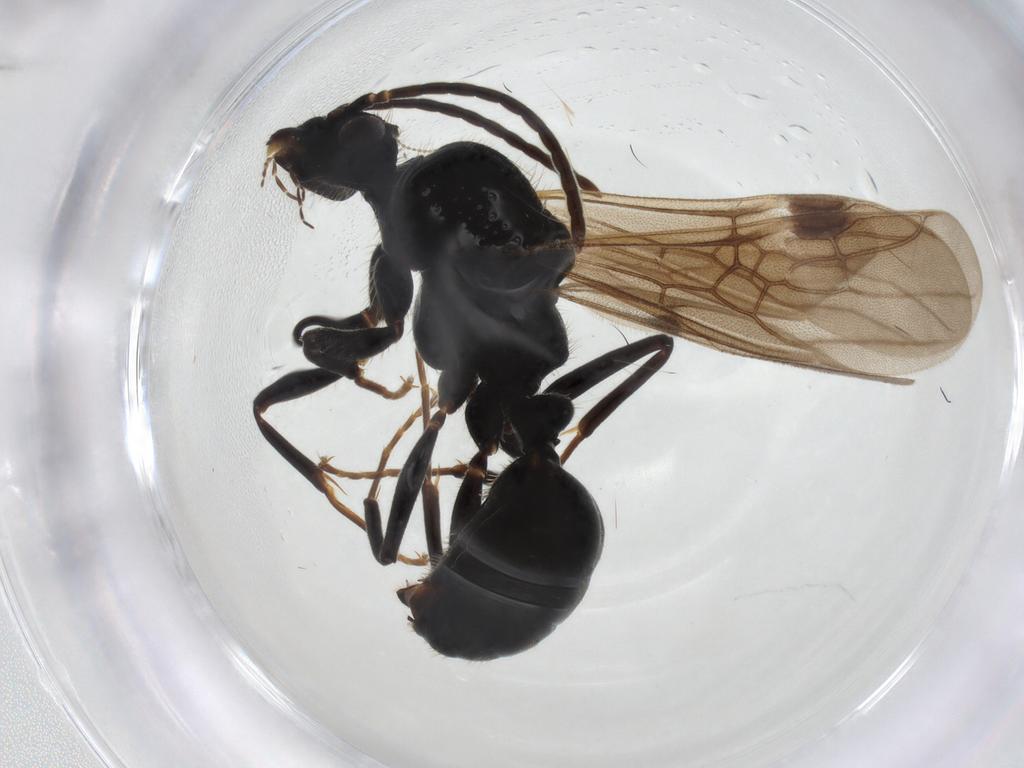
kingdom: Animalia
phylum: Arthropoda
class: Insecta
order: Hymenoptera
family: Formicidae
